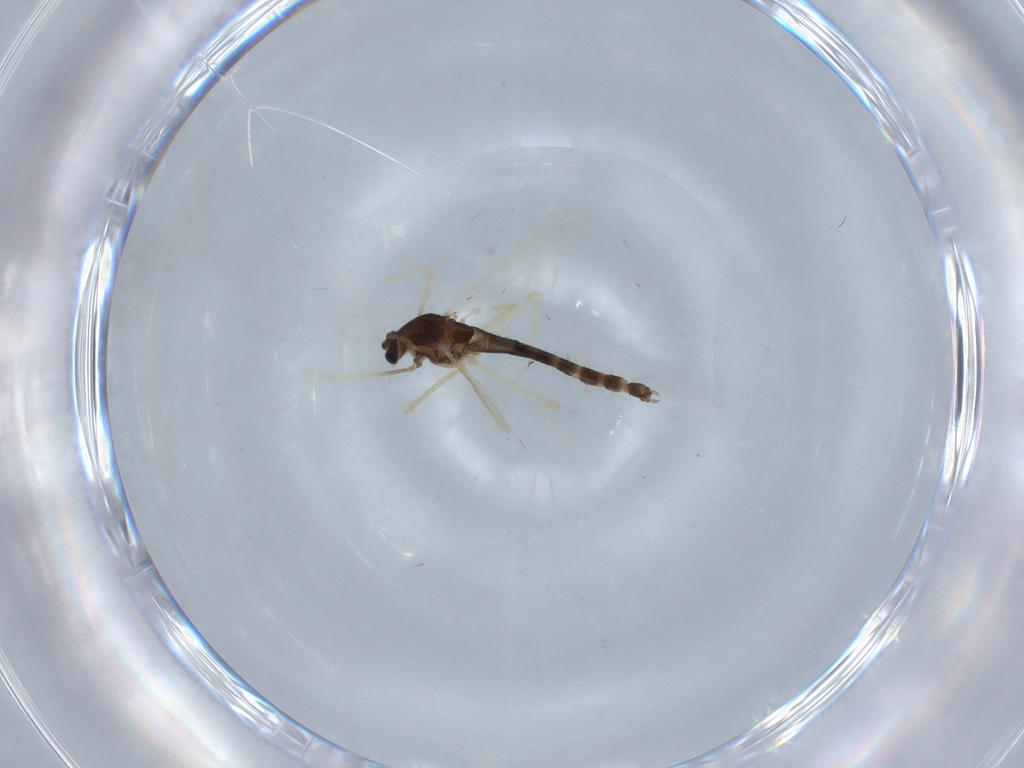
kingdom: Animalia
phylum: Arthropoda
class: Insecta
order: Diptera
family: Chironomidae
